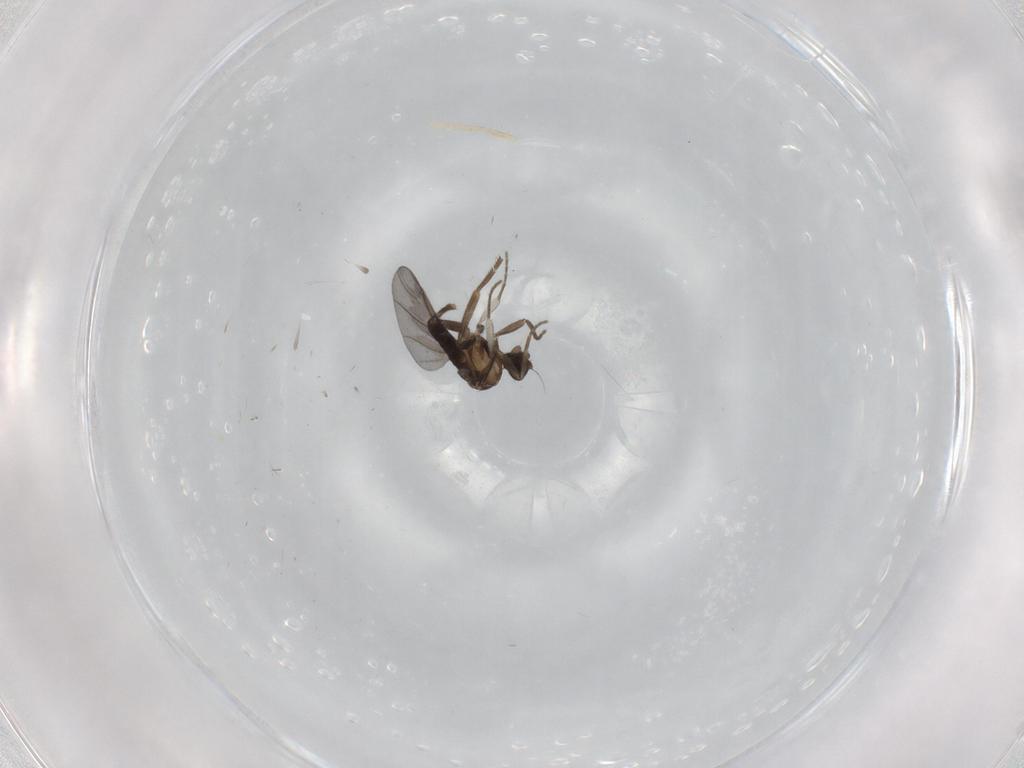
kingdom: Animalia
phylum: Arthropoda
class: Insecta
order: Diptera
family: Phoridae
